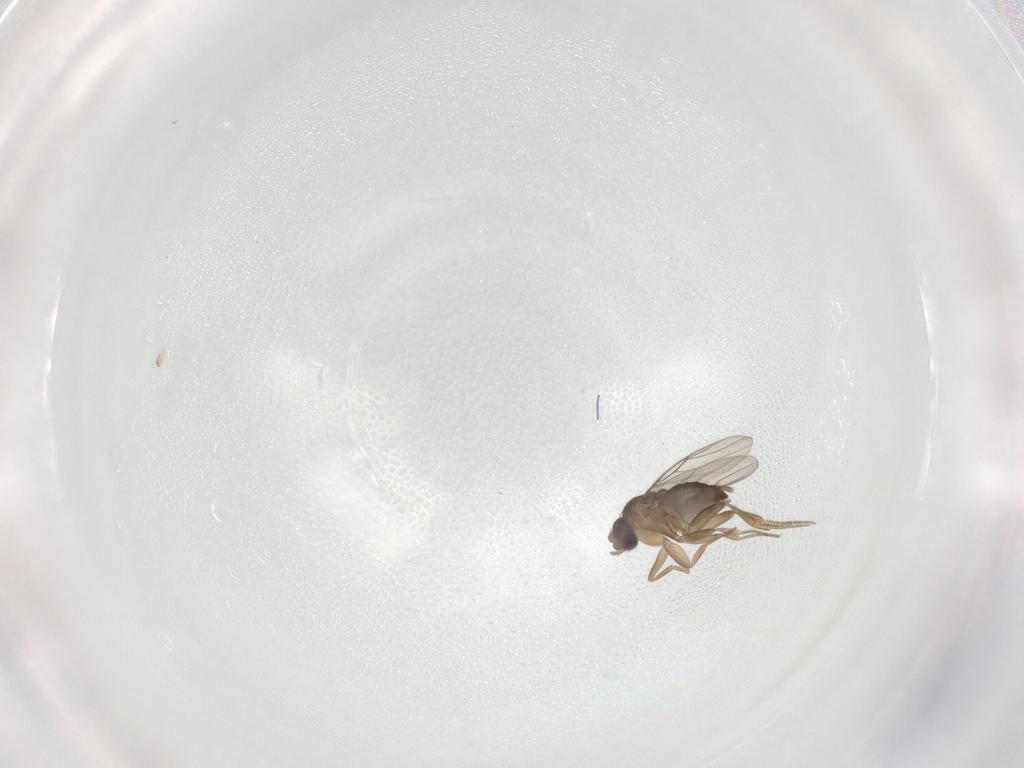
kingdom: Animalia
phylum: Arthropoda
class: Insecta
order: Diptera
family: Phoridae
